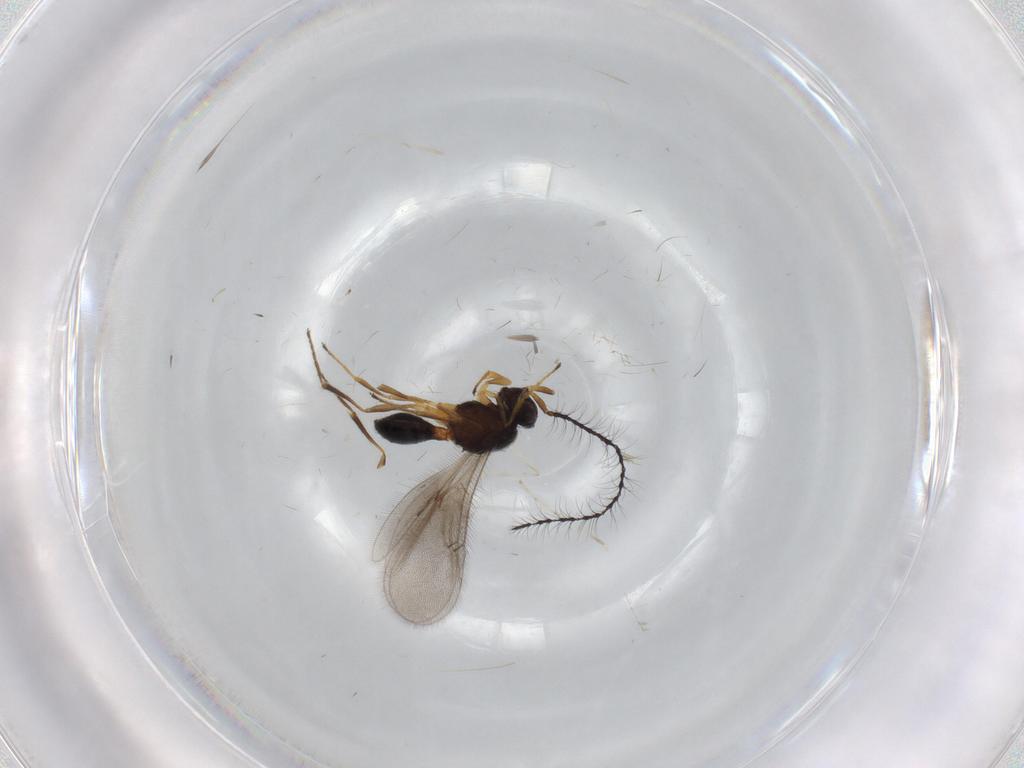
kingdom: Animalia
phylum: Arthropoda
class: Insecta
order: Hymenoptera
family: Scelionidae
